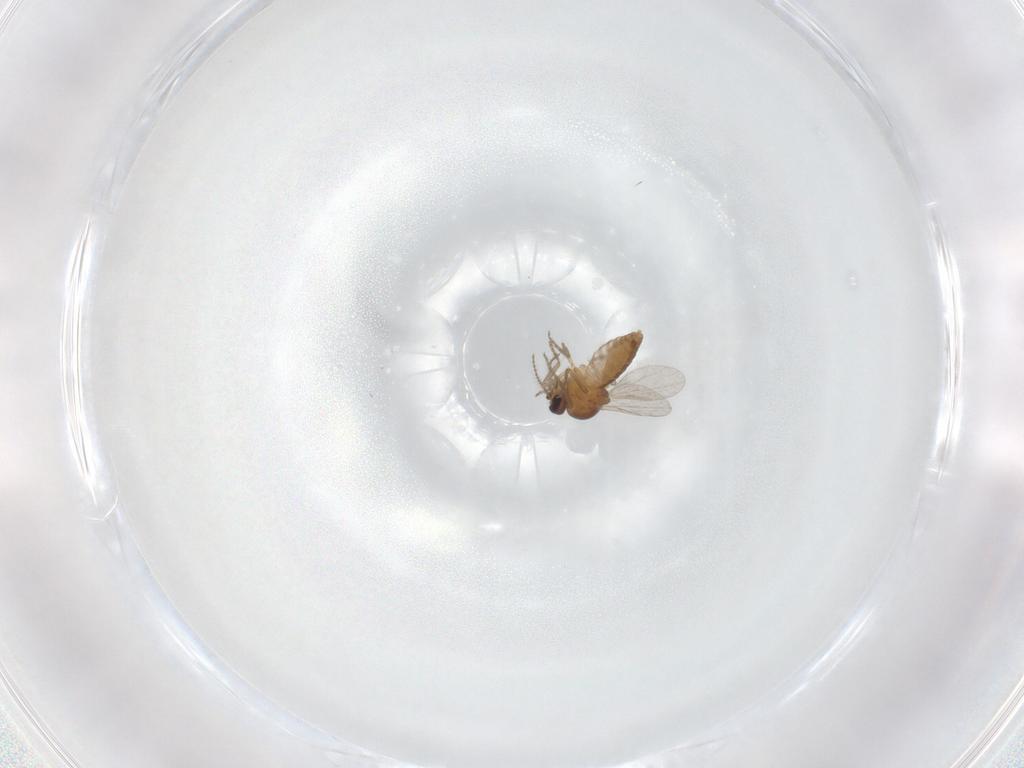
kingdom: Animalia
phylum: Arthropoda
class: Insecta
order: Diptera
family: Ceratopogonidae
